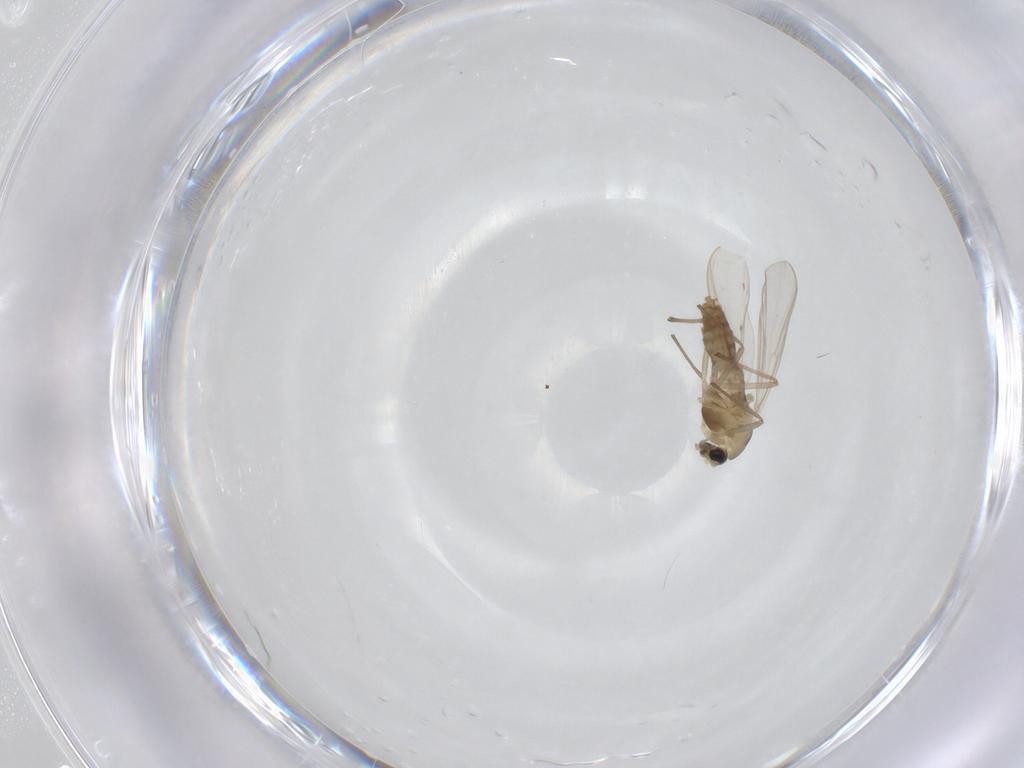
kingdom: Animalia
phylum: Arthropoda
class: Insecta
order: Diptera
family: Chironomidae
